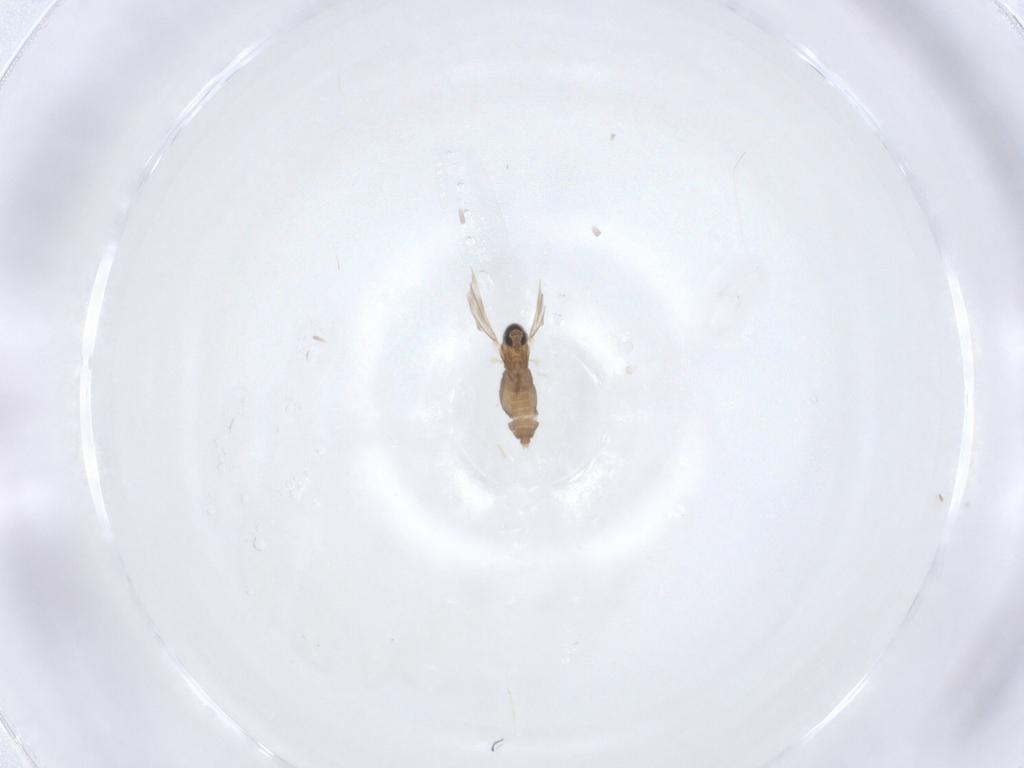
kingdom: Animalia
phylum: Arthropoda
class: Insecta
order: Diptera
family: Cecidomyiidae
